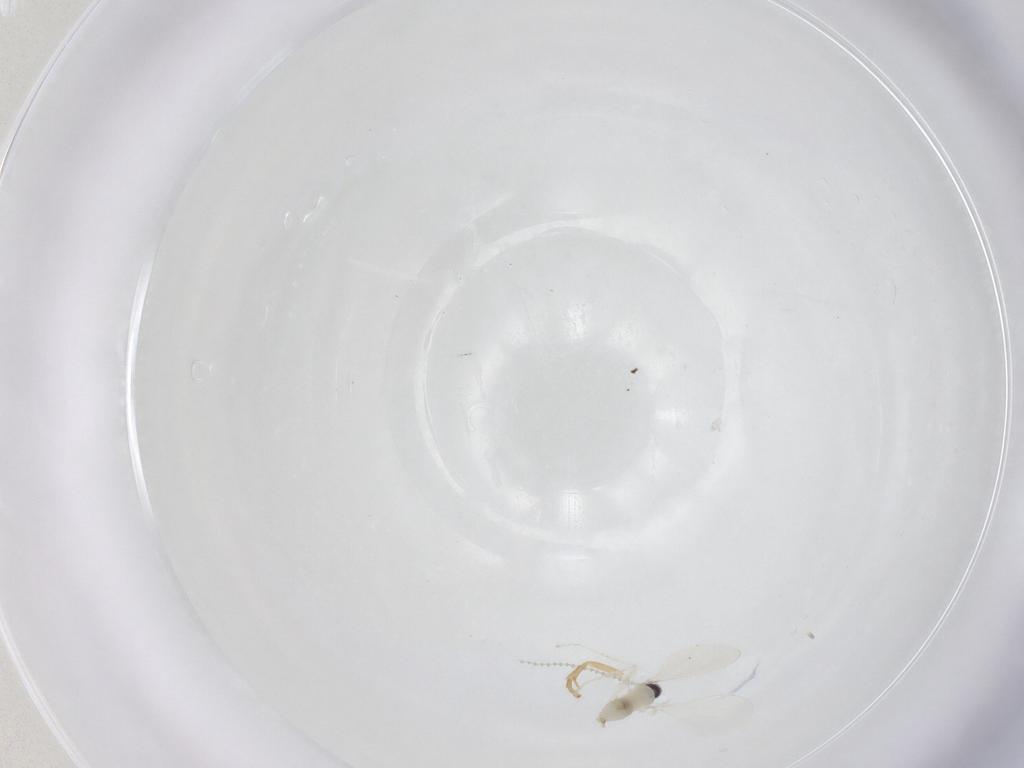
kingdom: Animalia
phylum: Arthropoda
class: Insecta
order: Diptera
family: Cecidomyiidae
